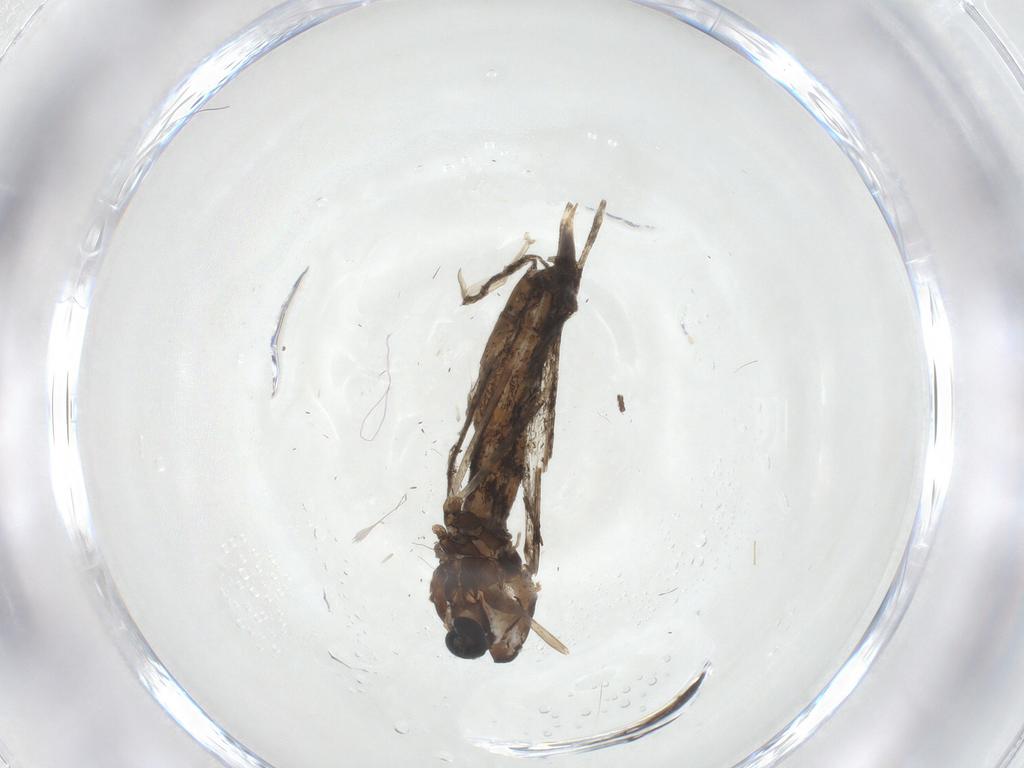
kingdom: Animalia
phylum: Arthropoda
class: Insecta
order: Diptera
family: Cecidomyiidae
